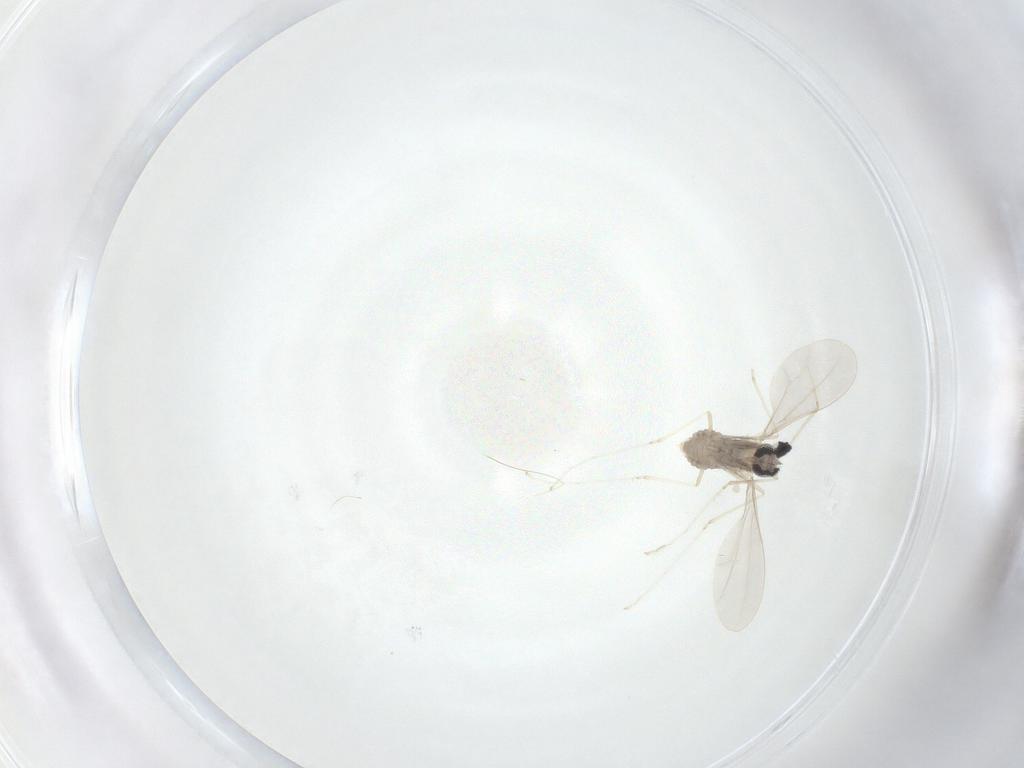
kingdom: Animalia
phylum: Arthropoda
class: Insecta
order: Diptera
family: Cecidomyiidae
